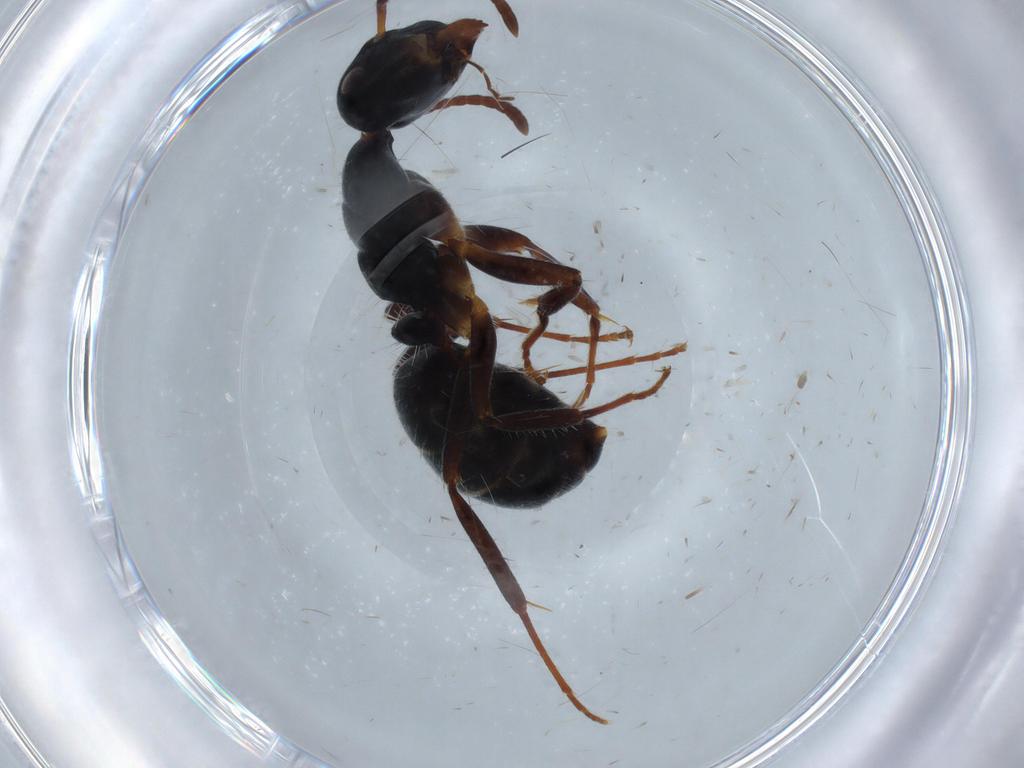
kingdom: Animalia
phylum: Arthropoda
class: Insecta
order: Hymenoptera
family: Formicidae
